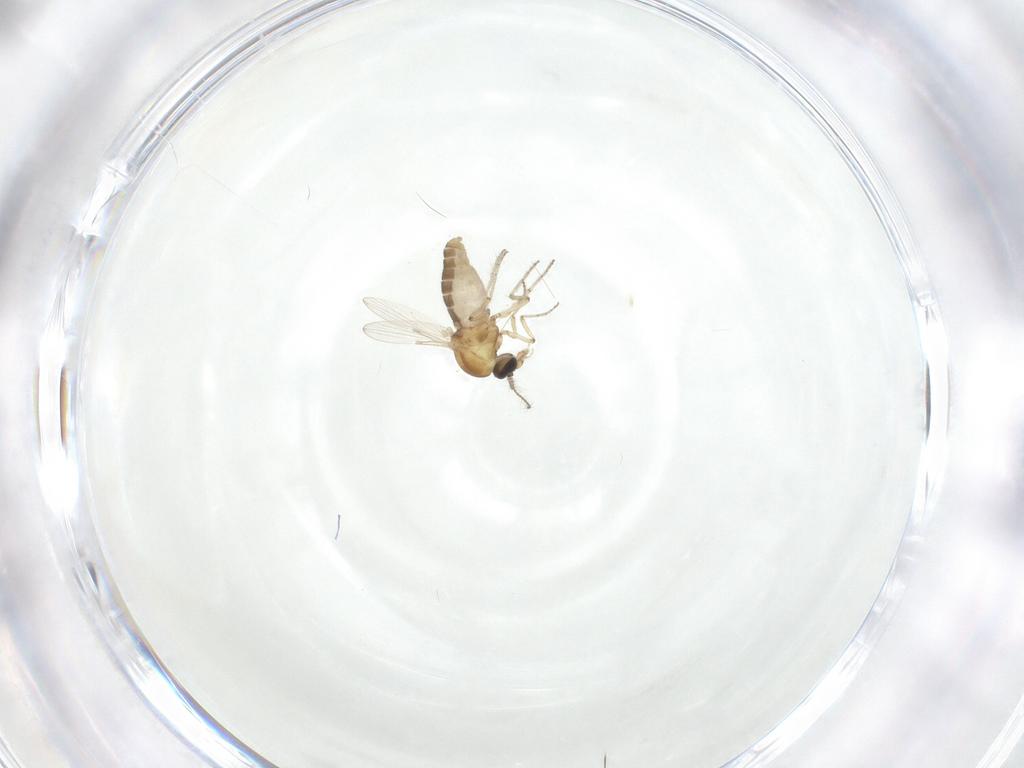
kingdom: Animalia
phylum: Arthropoda
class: Insecta
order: Diptera
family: Ceratopogonidae
